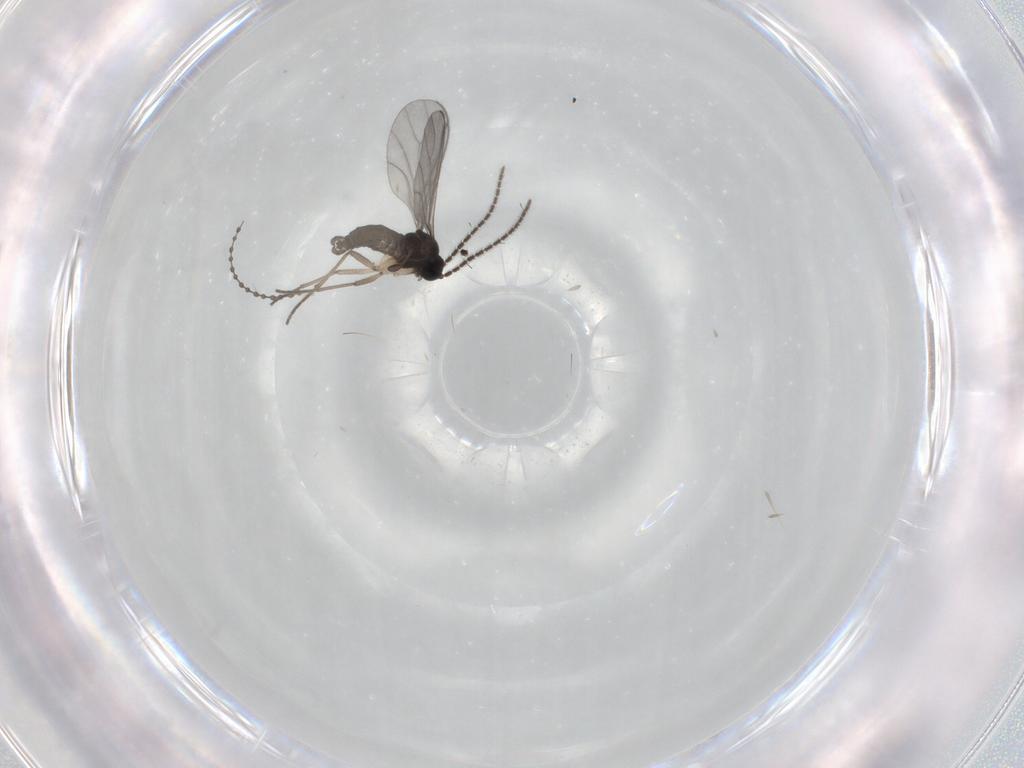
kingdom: Animalia
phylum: Arthropoda
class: Insecta
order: Diptera
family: Sciaridae
